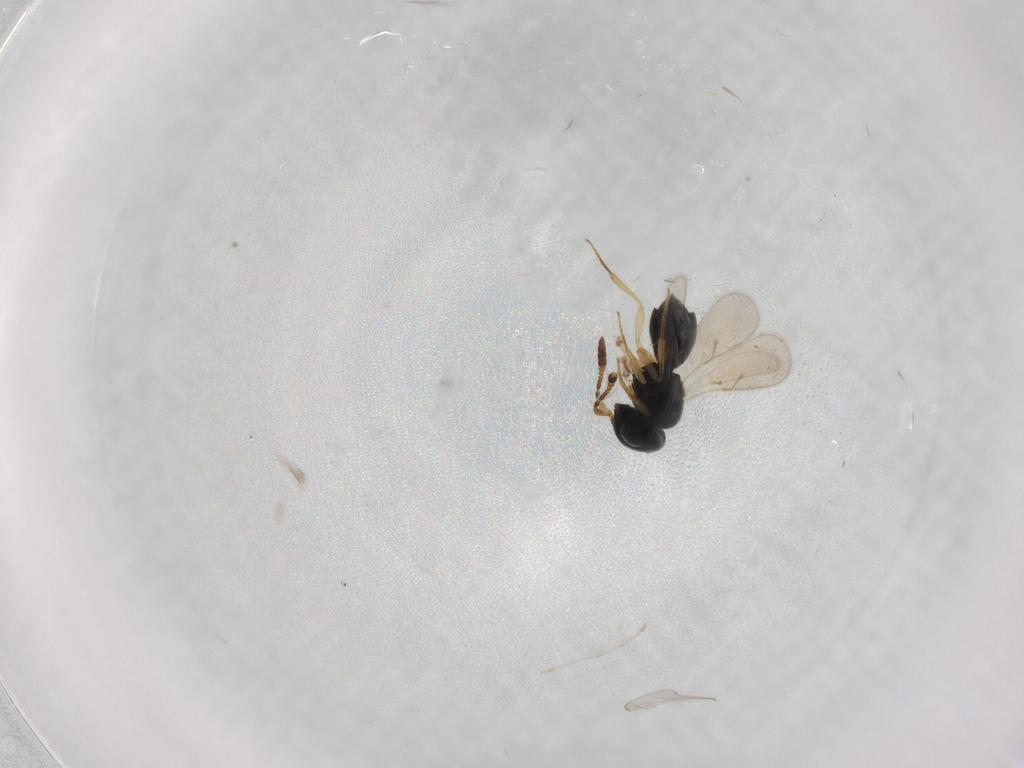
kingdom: Animalia
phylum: Arthropoda
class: Insecta
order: Hymenoptera
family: Scelionidae
